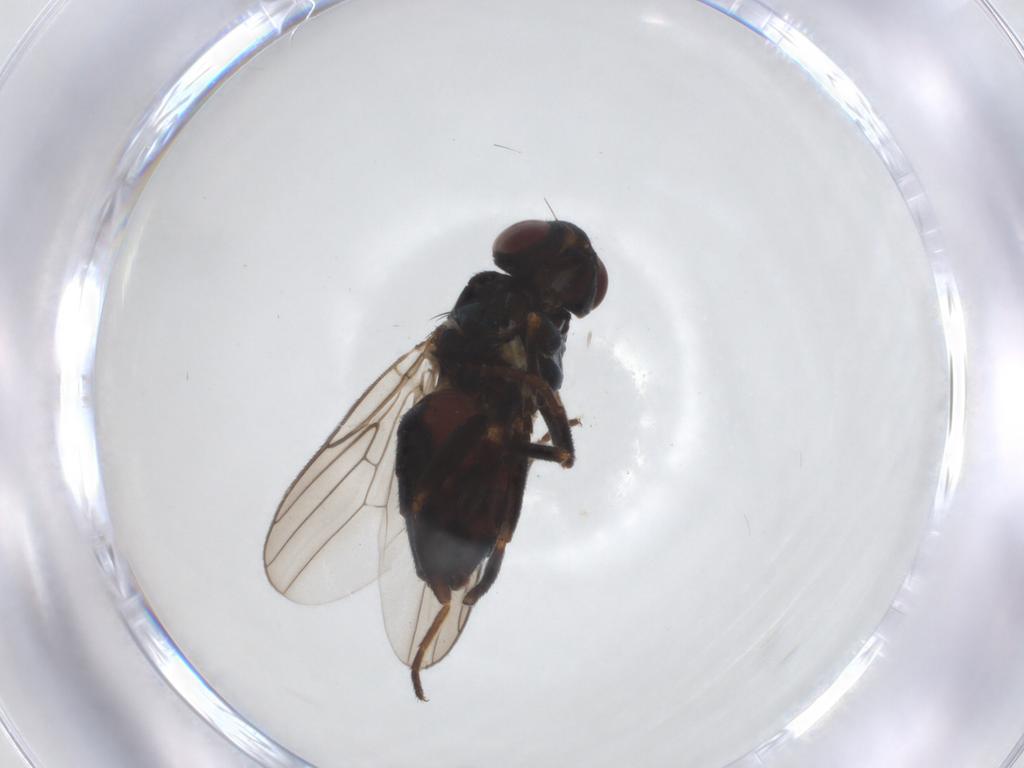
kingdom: Animalia
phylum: Arthropoda
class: Insecta
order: Diptera
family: Chloropidae
